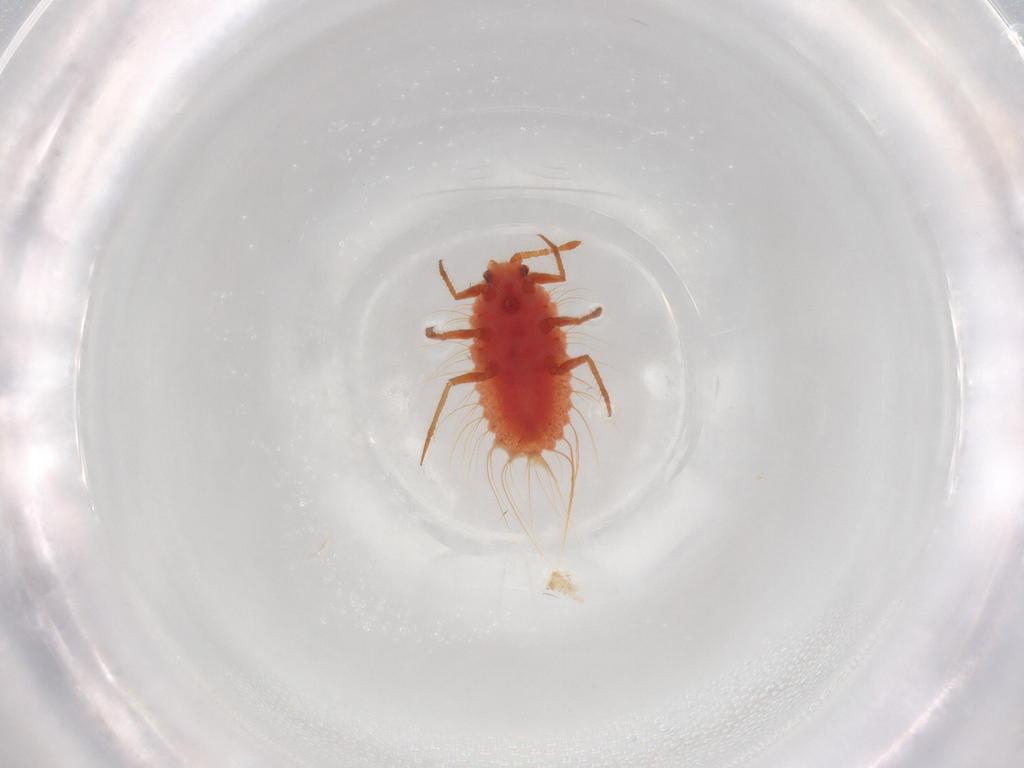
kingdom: Animalia
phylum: Arthropoda
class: Insecta
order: Hemiptera
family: Monophlebidae
